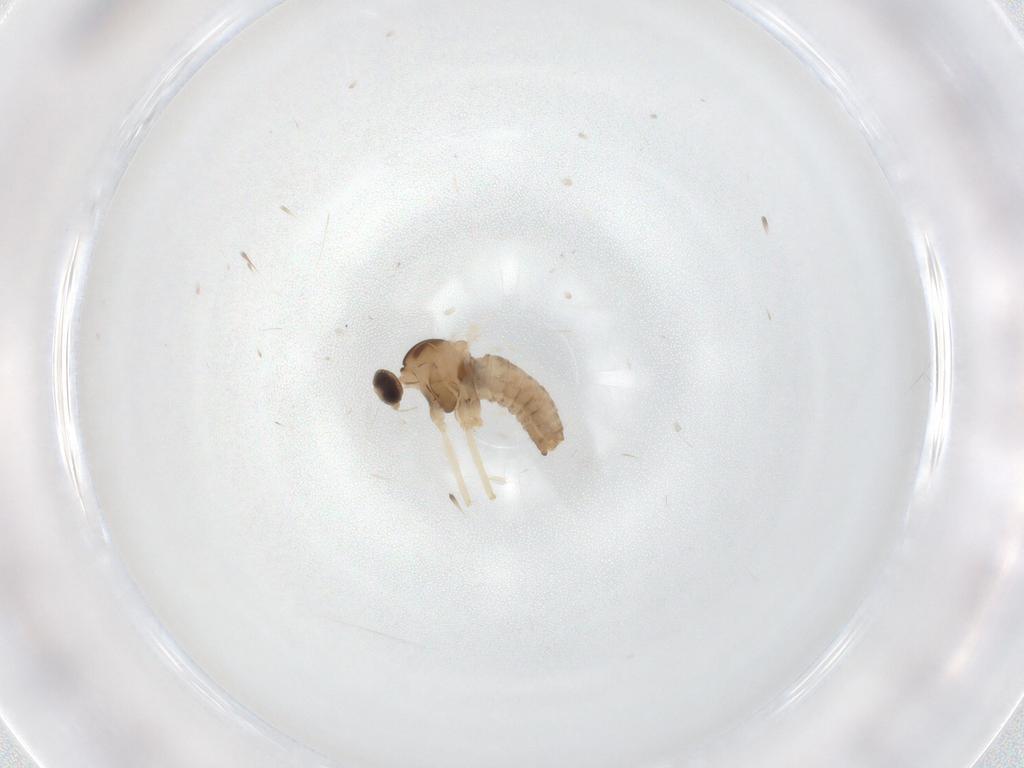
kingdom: Animalia
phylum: Arthropoda
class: Insecta
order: Diptera
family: Cecidomyiidae
